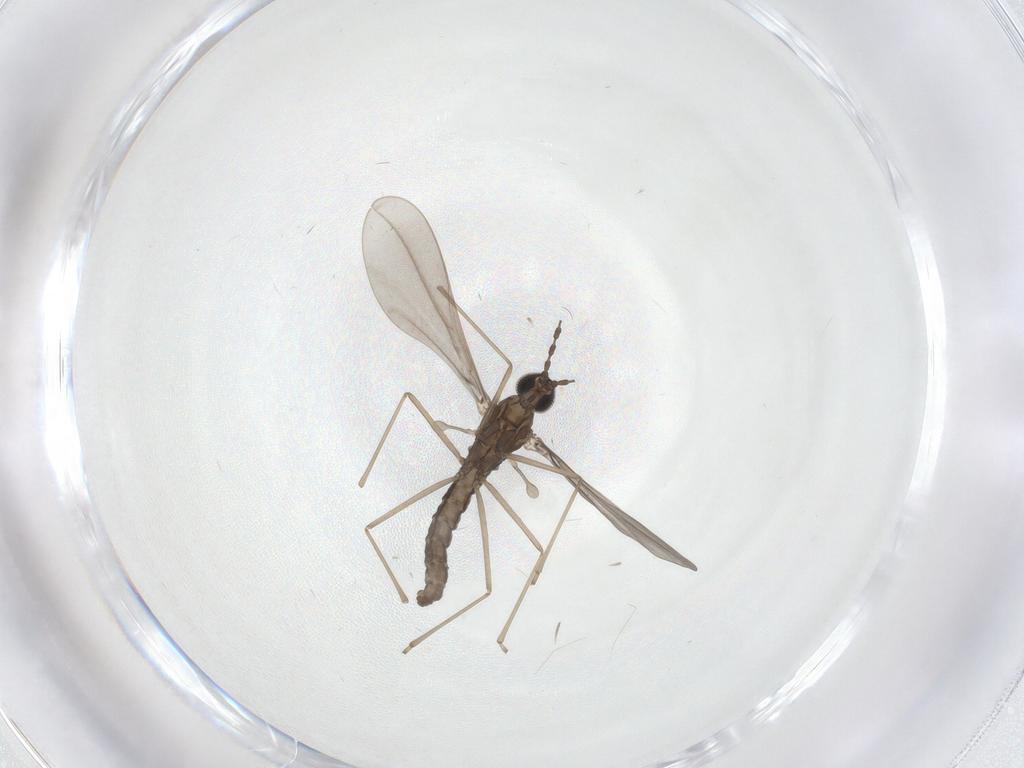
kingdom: Animalia
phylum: Arthropoda
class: Insecta
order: Diptera
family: Cecidomyiidae
